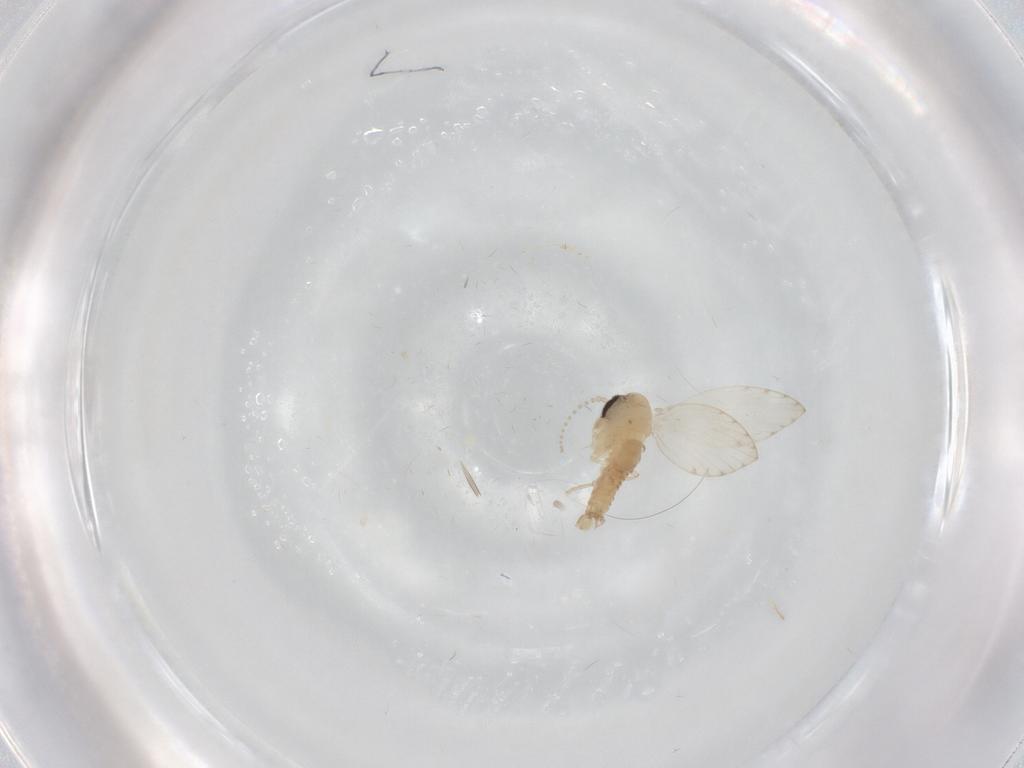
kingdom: Animalia
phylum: Arthropoda
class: Insecta
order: Diptera
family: Psychodidae
